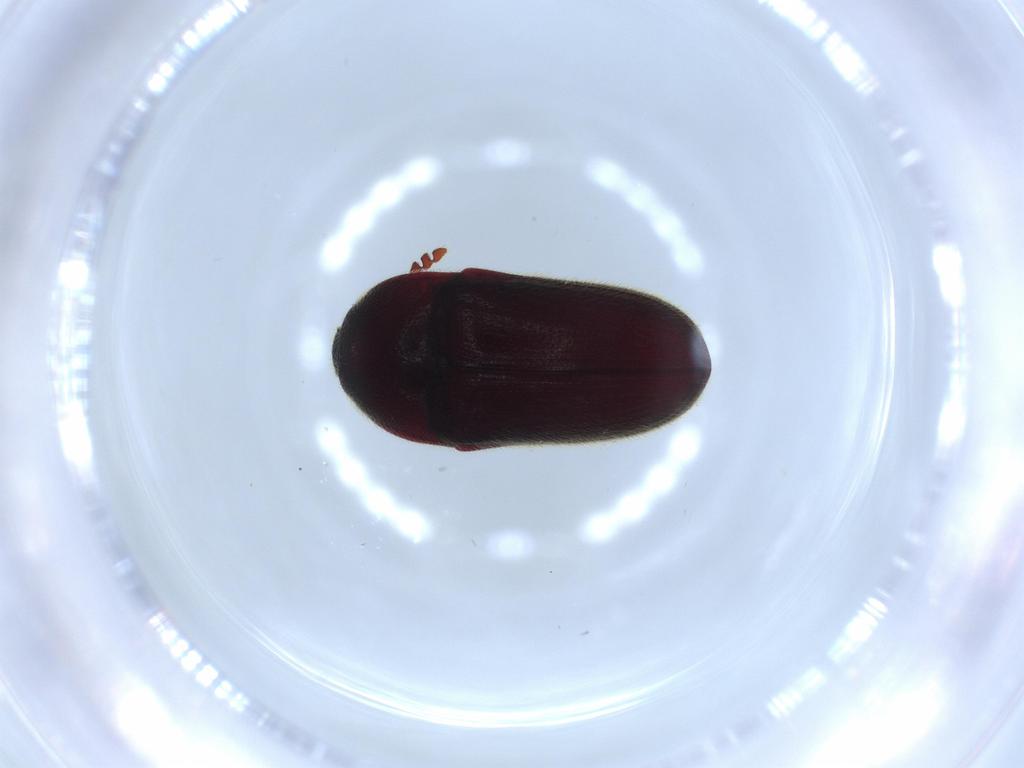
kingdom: Animalia
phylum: Arthropoda
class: Insecta
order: Coleoptera
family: Throscidae
